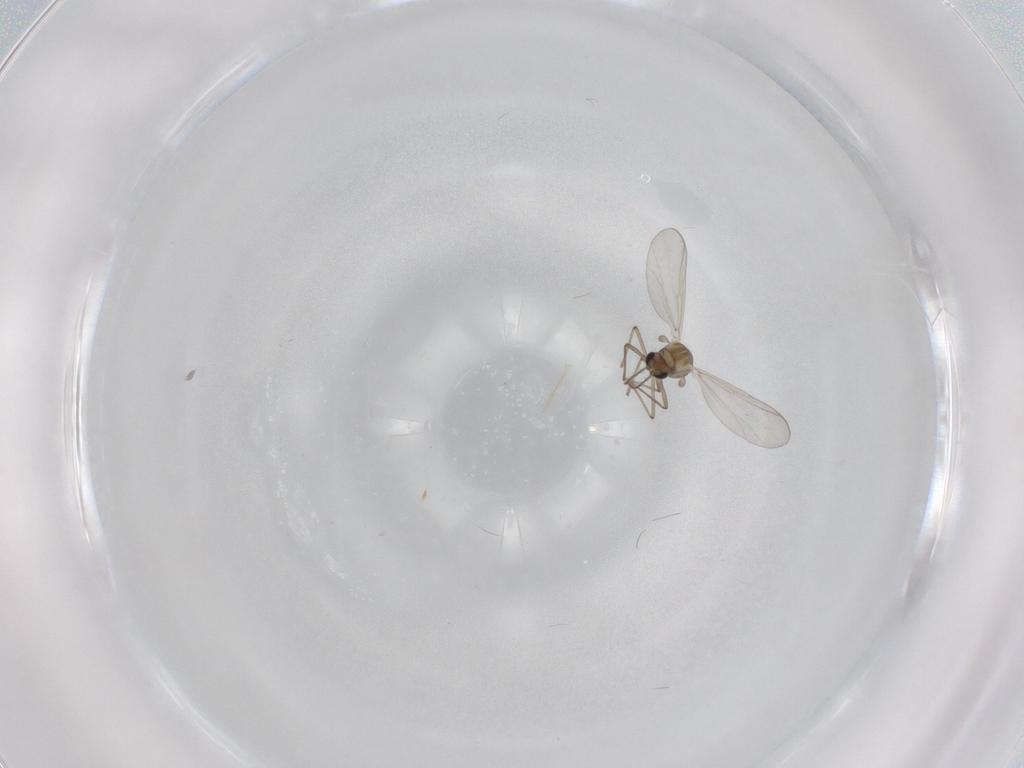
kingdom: Animalia
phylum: Arthropoda
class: Insecta
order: Diptera
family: Chironomidae
